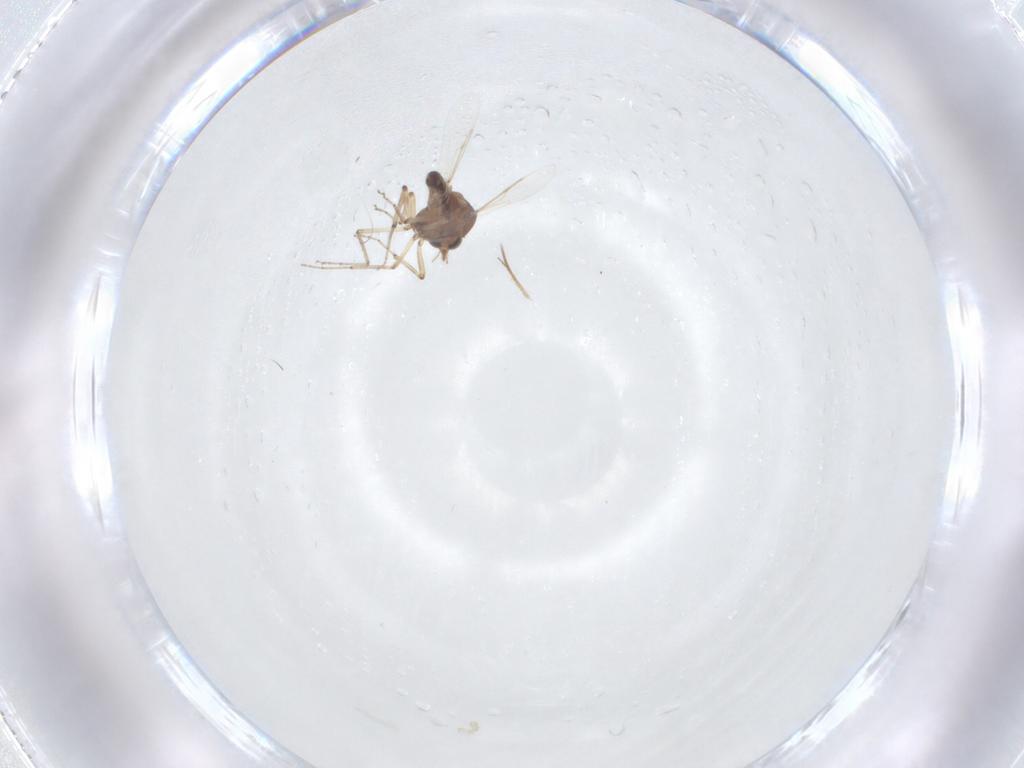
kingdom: Animalia
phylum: Arthropoda
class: Insecta
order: Diptera
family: Ceratopogonidae
